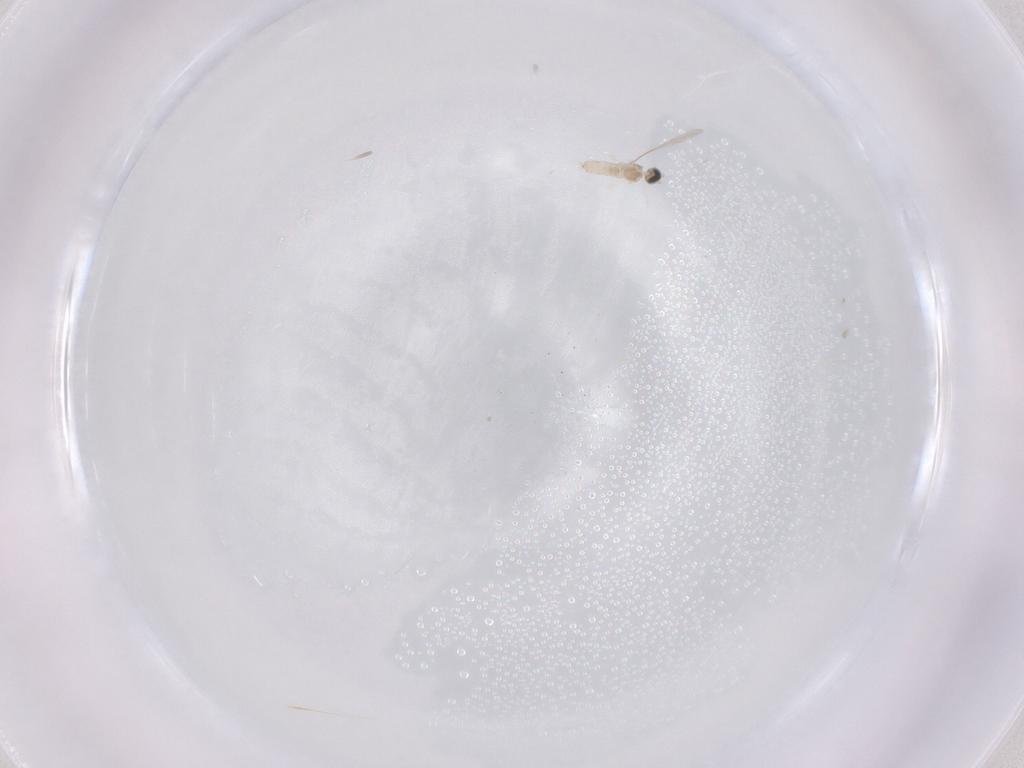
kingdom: Animalia
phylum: Arthropoda
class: Insecta
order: Diptera
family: Cecidomyiidae
